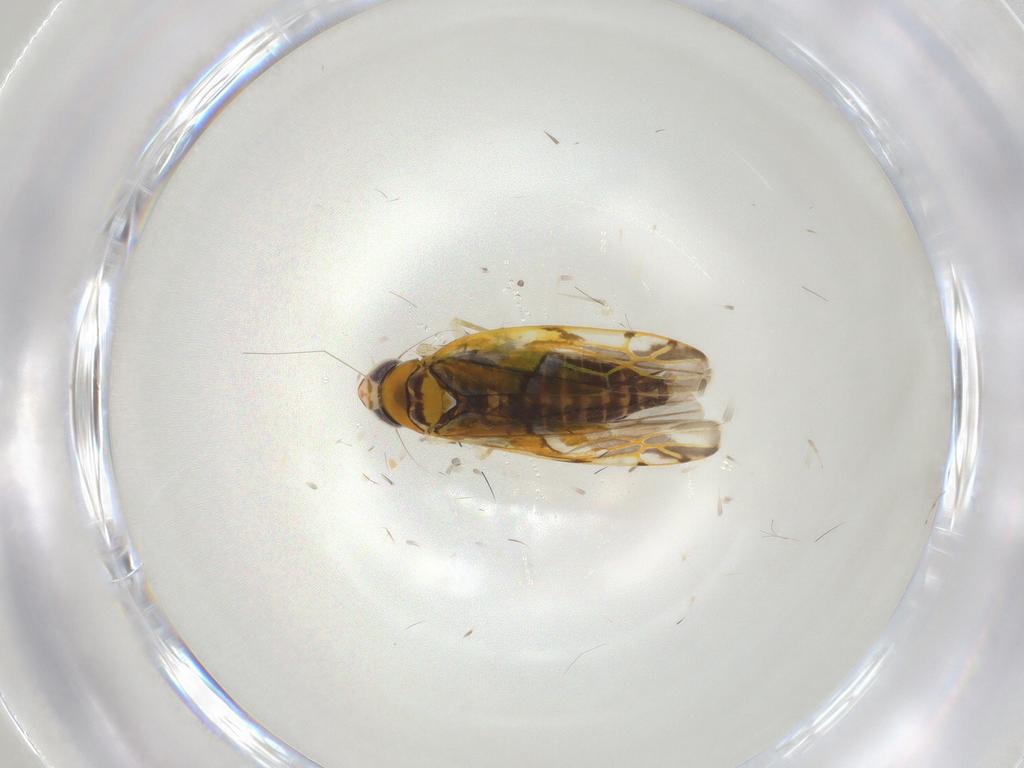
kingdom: Animalia
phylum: Arthropoda
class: Insecta
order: Hemiptera
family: Cicadellidae
